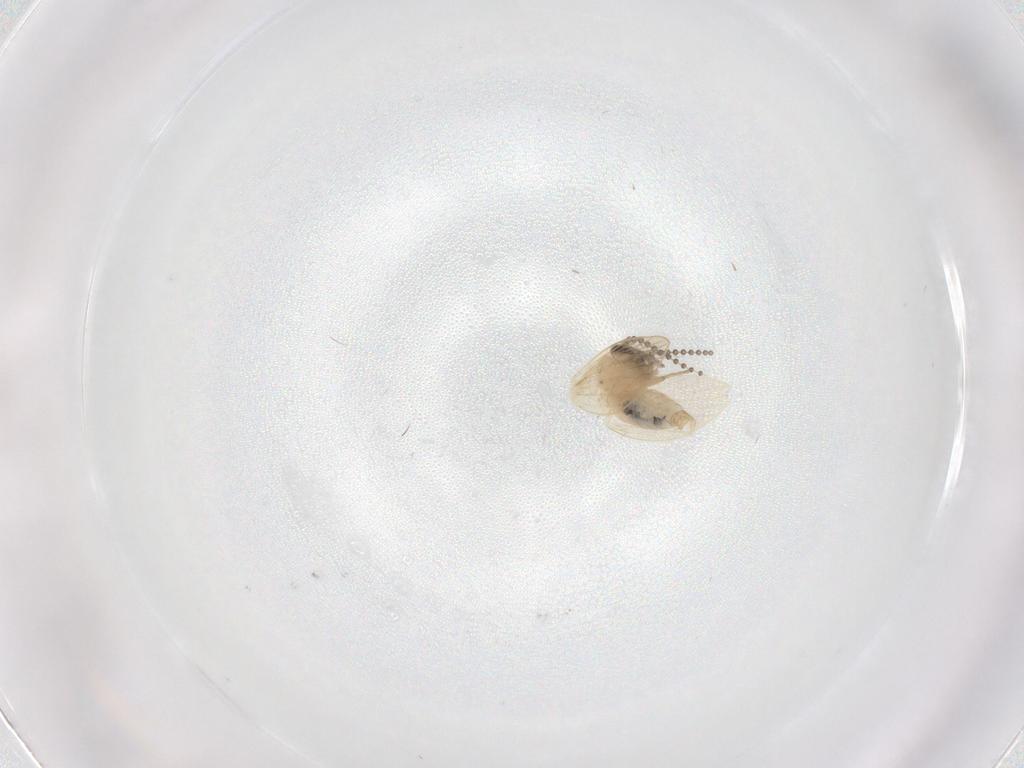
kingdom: Animalia
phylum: Arthropoda
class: Insecta
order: Diptera
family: Psychodidae
